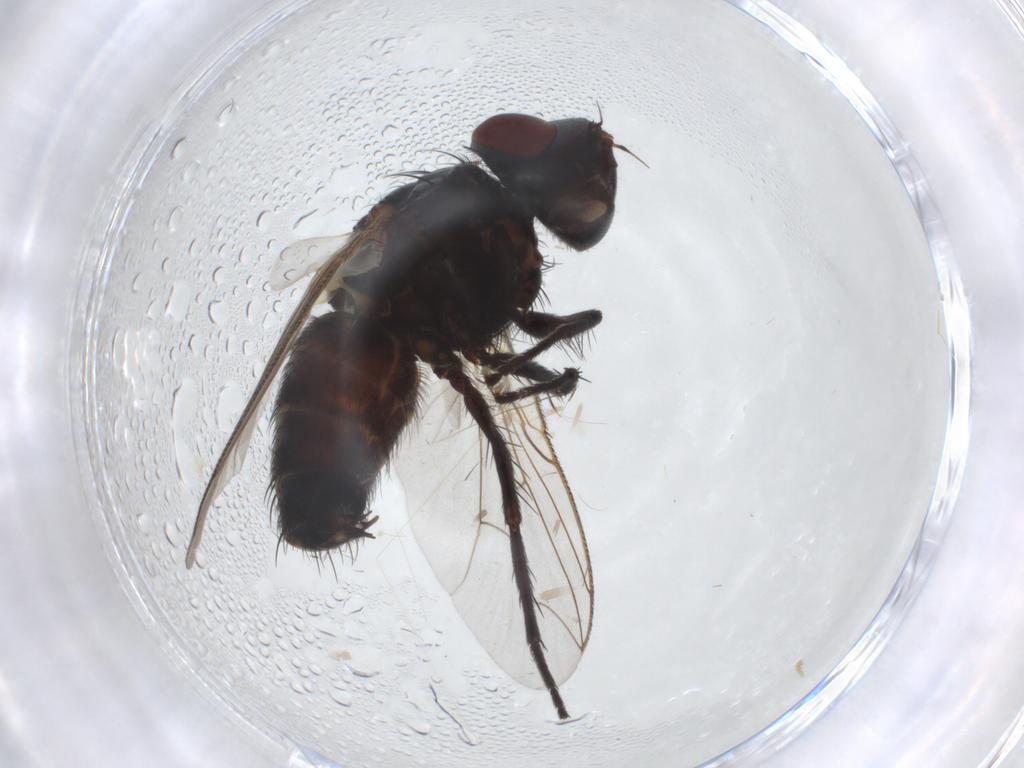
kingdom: Animalia
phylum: Arthropoda
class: Insecta
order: Diptera
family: Sarcophagidae
